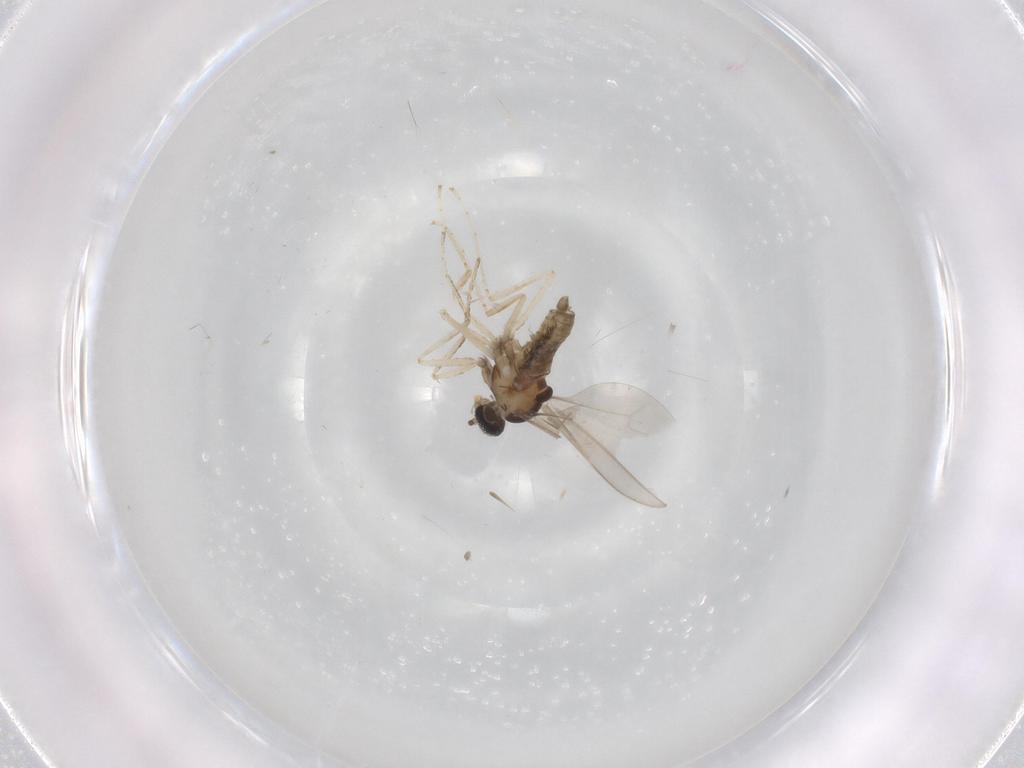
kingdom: Animalia
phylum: Arthropoda
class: Insecta
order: Diptera
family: Cecidomyiidae
